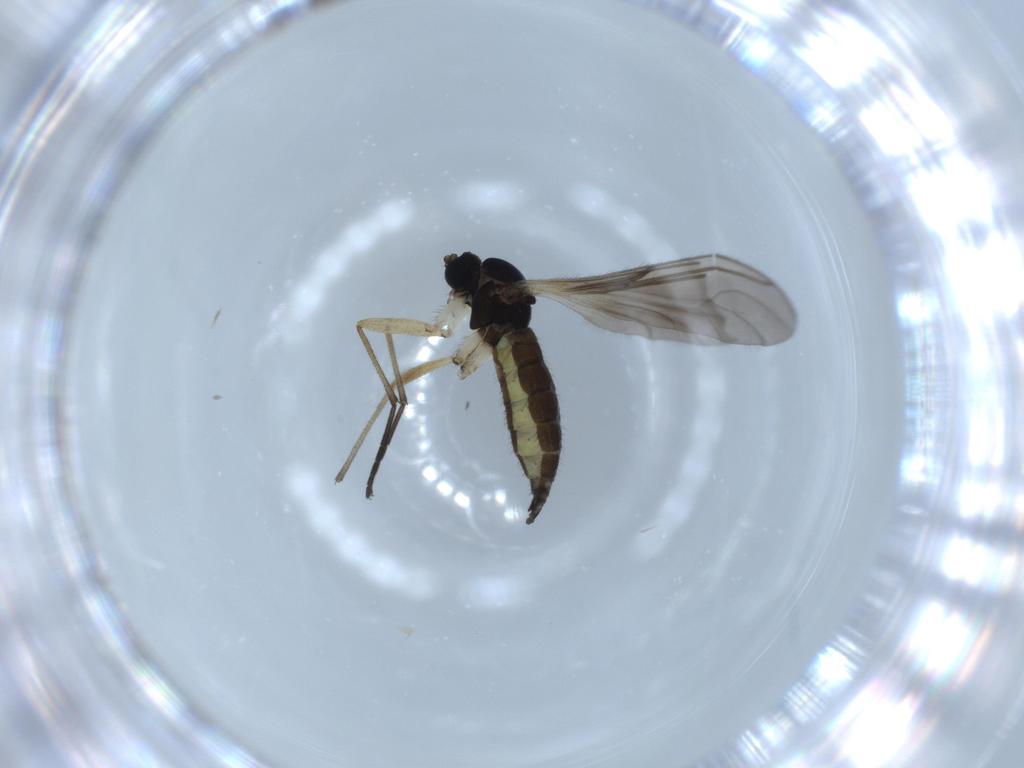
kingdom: Animalia
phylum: Arthropoda
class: Insecta
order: Diptera
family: Sciaridae
